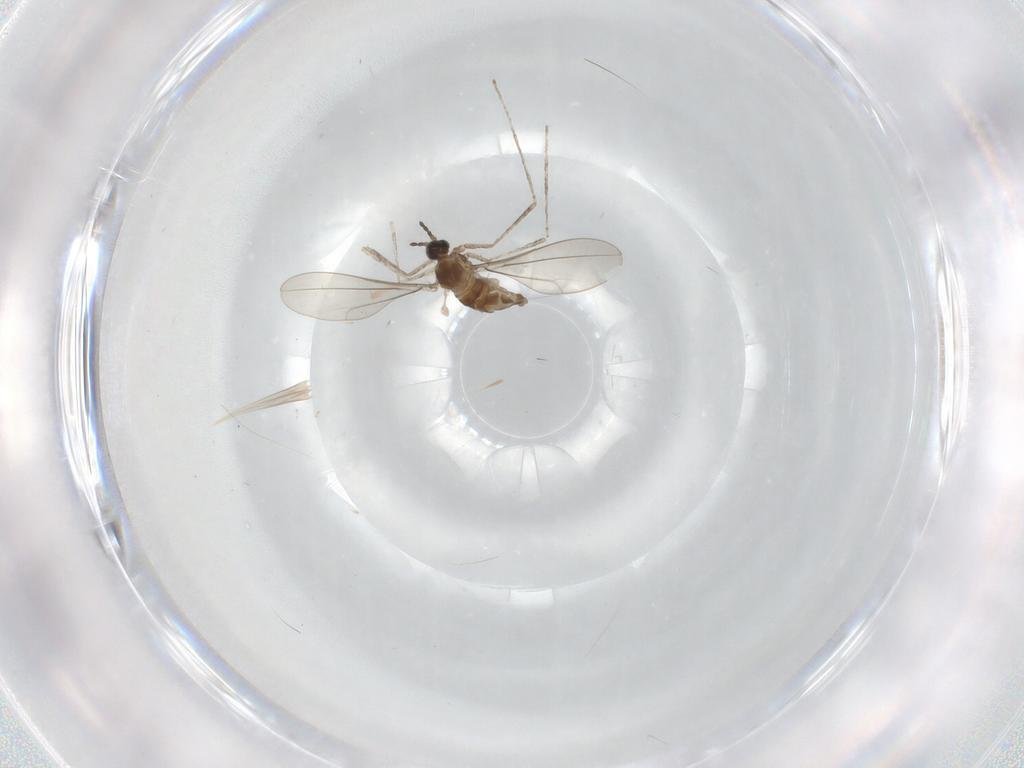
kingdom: Animalia
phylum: Arthropoda
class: Insecta
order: Diptera
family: Cecidomyiidae
